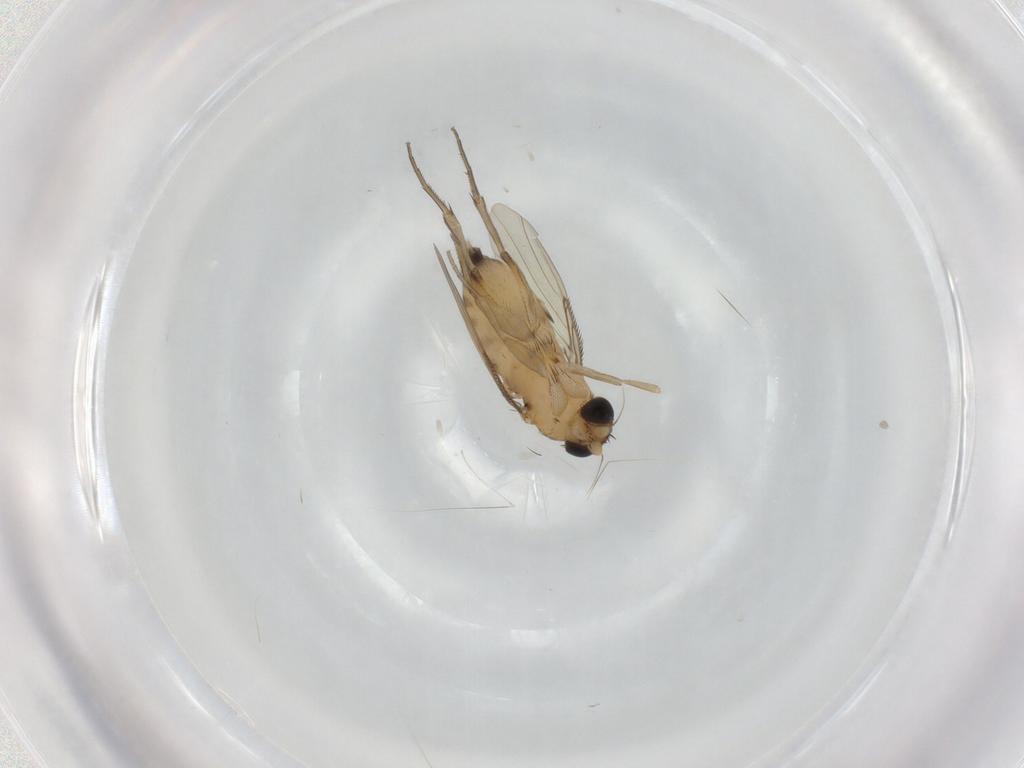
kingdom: Animalia
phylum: Arthropoda
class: Insecta
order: Diptera
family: Phoridae
